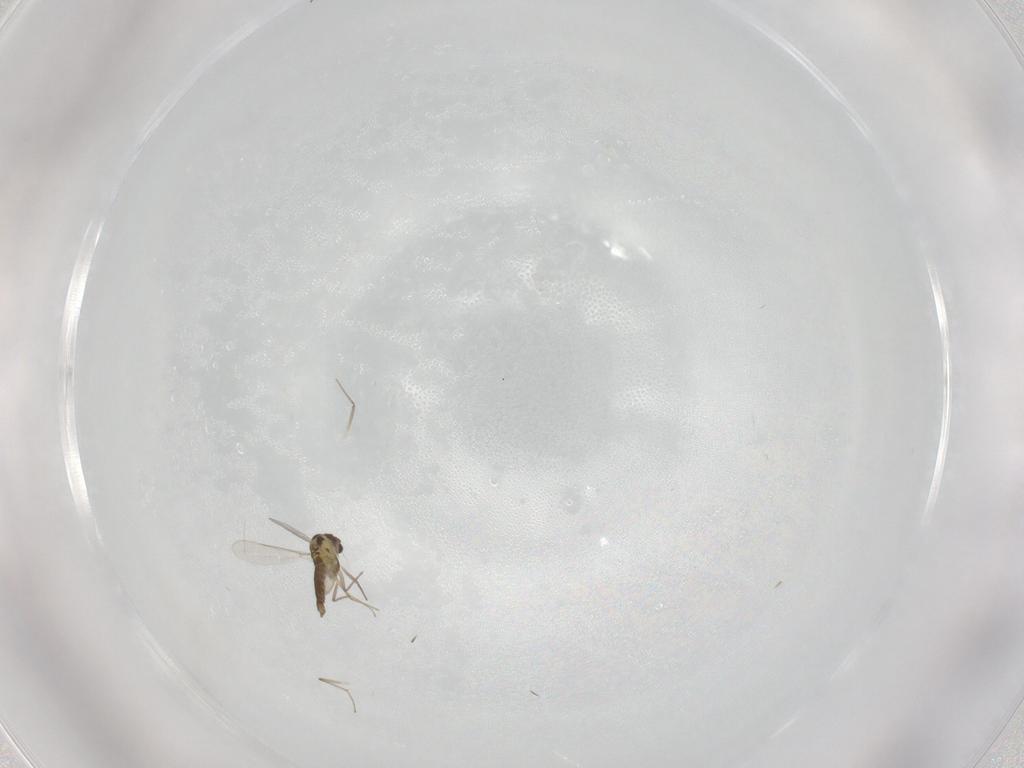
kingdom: Animalia
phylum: Arthropoda
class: Insecta
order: Diptera
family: Chironomidae
